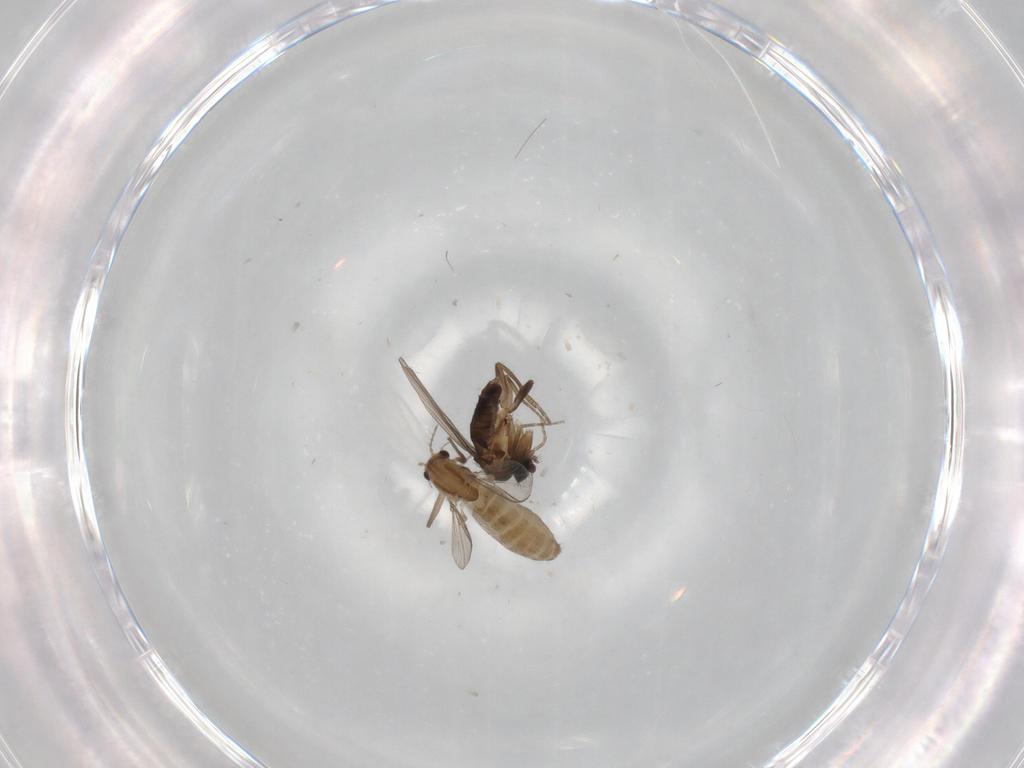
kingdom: Animalia
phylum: Arthropoda
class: Insecta
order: Diptera
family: Chironomidae
